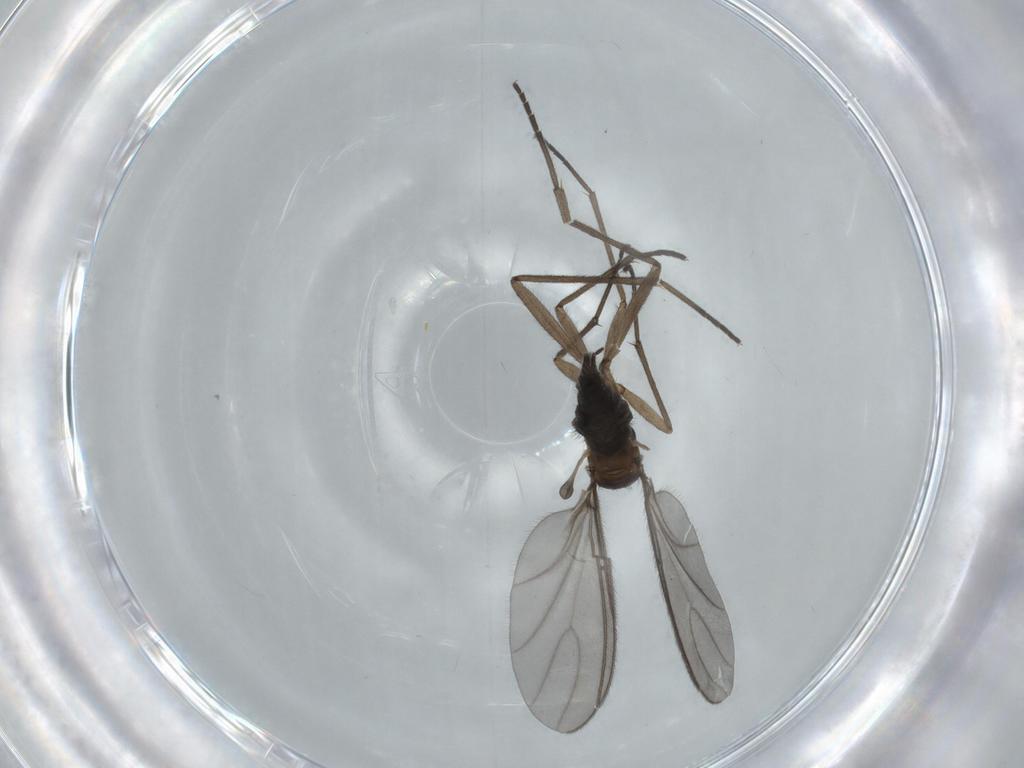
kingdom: Animalia
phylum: Arthropoda
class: Insecta
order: Diptera
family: Sciaridae
